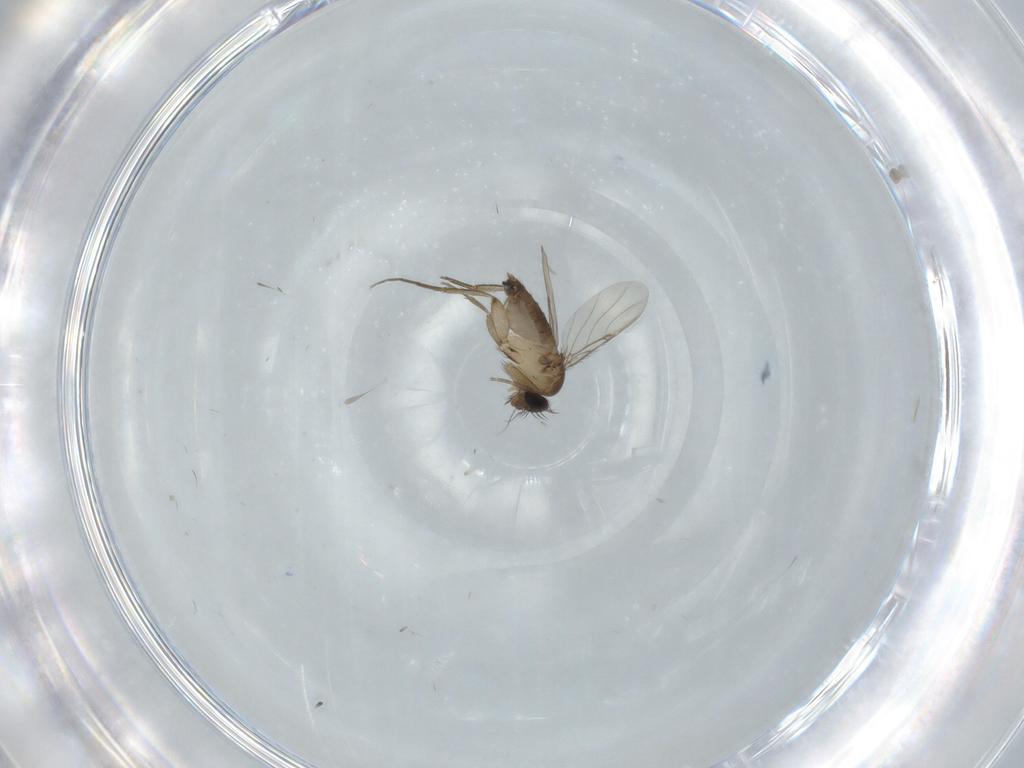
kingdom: Animalia
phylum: Arthropoda
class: Insecta
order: Diptera
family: Phoridae
